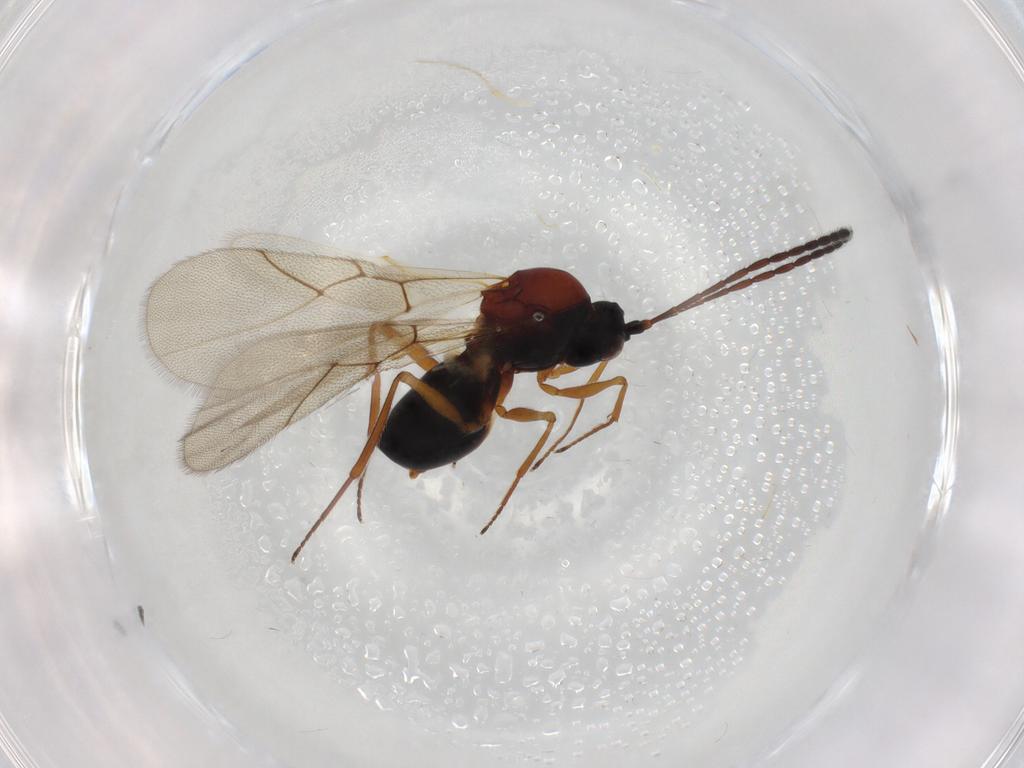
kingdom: Animalia
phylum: Arthropoda
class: Insecta
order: Hymenoptera
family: Figitidae
